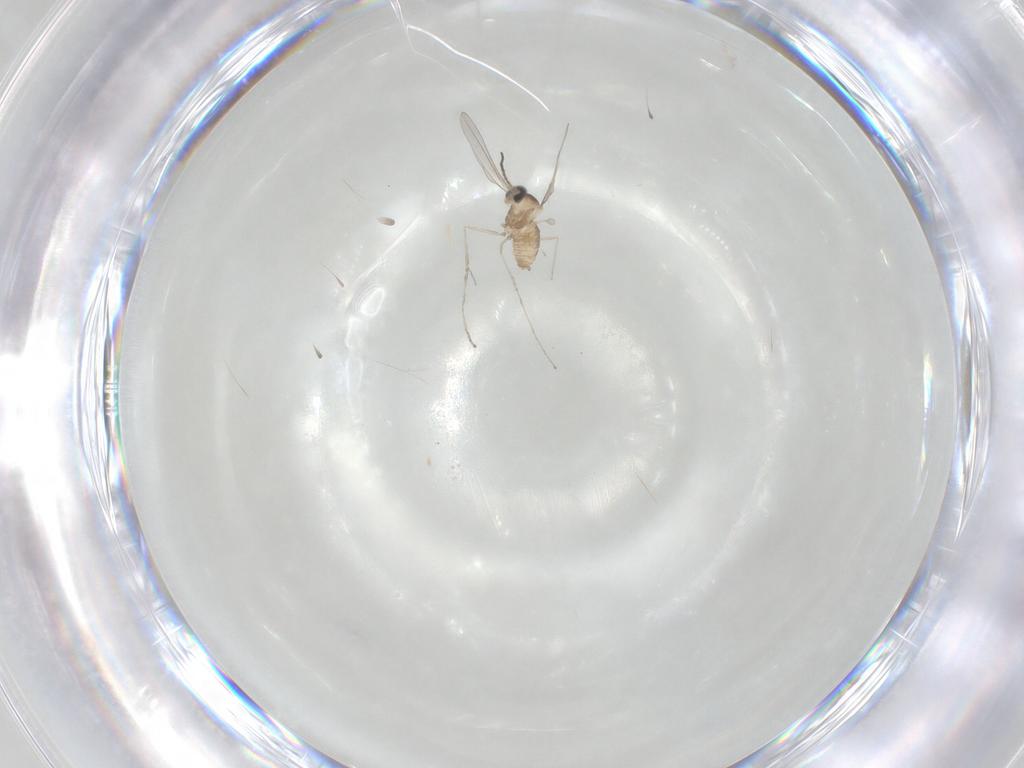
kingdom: Animalia
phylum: Arthropoda
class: Insecta
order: Diptera
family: Cecidomyiidae
